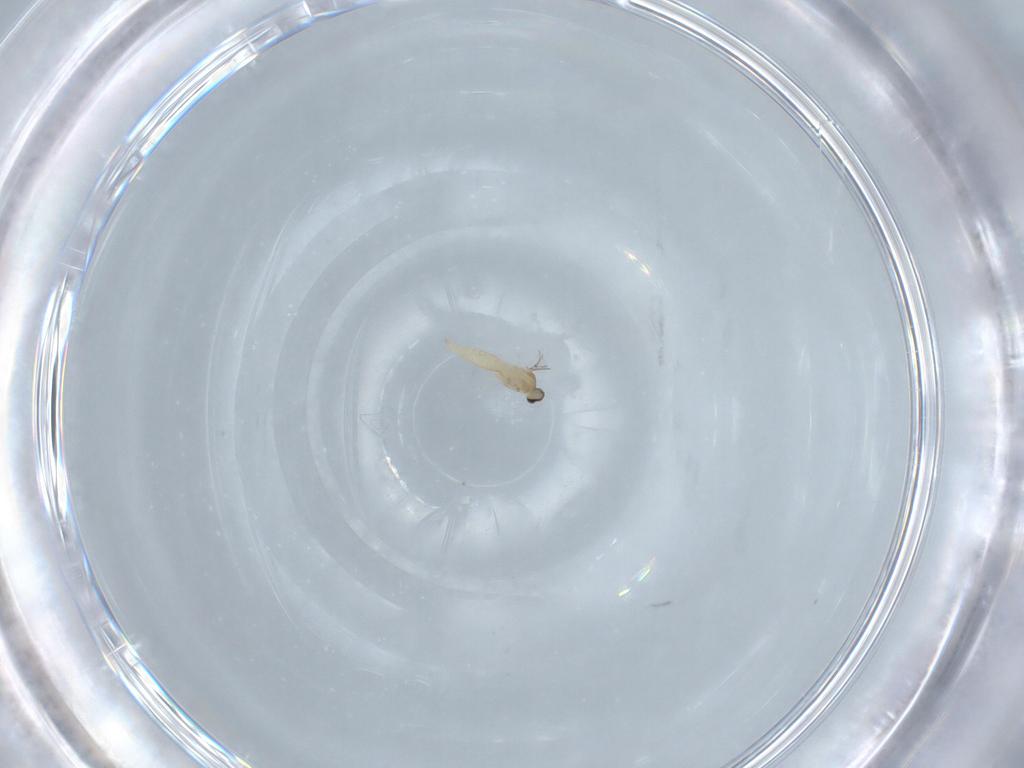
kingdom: Animalia
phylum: Arthropoda
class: Insecta
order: Diptera
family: Cecidomyiidae
